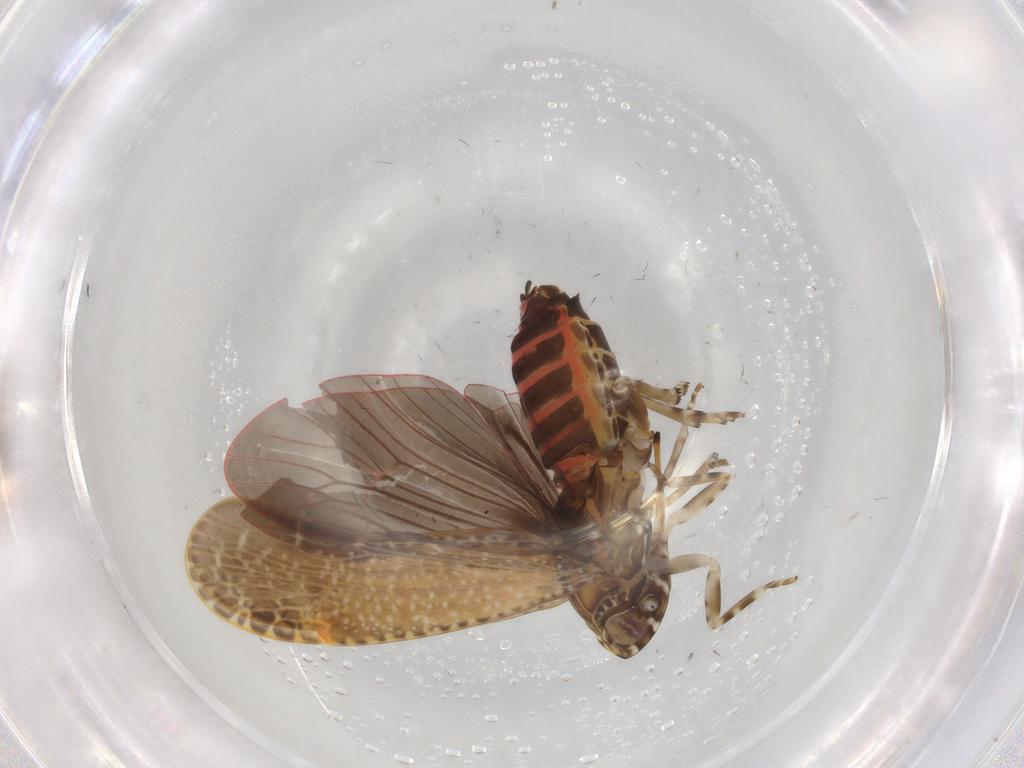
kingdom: Animalia
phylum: Arthropoda
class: Insecta
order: Hemiptera
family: Achilidae
